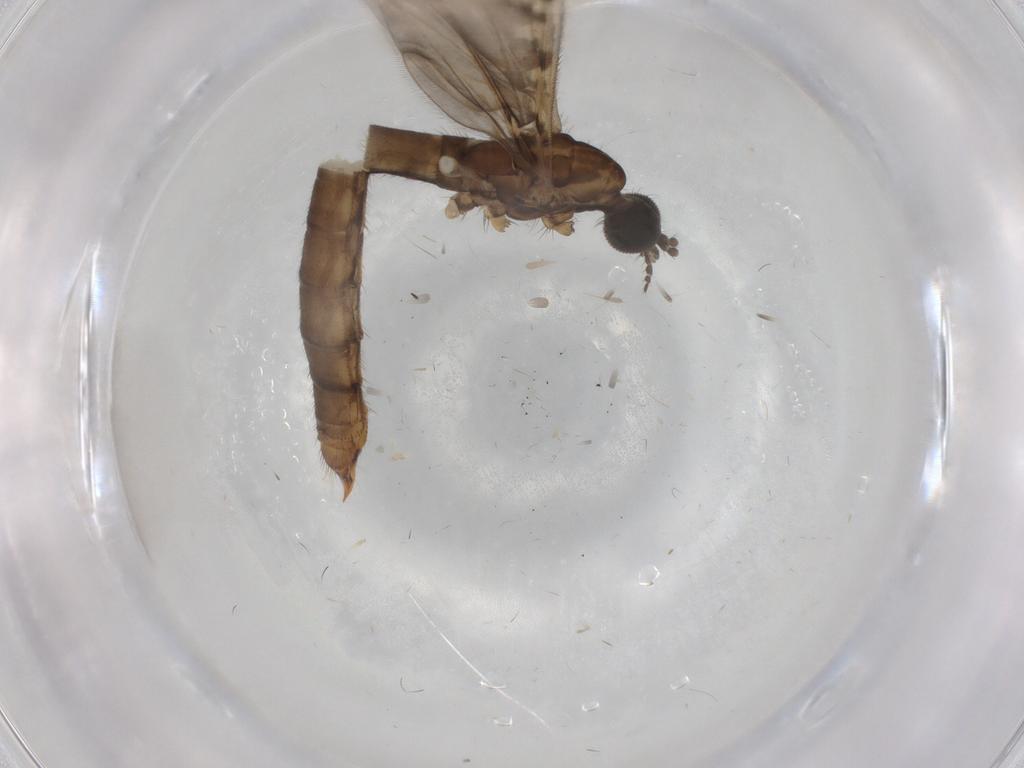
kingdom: Animalia
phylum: Arthropoda
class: Insecta
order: Diptera
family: Limoniidae
